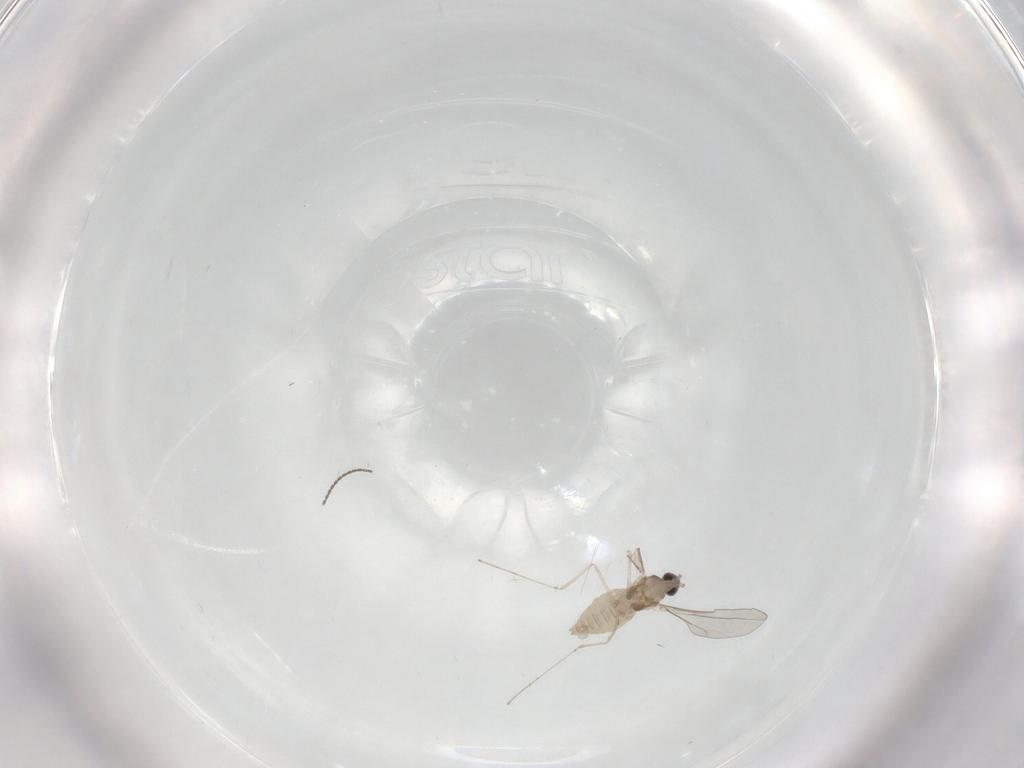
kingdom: Animalia
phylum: Arthropoda
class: Insecta
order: Diptera
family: Cecidomyiidae
